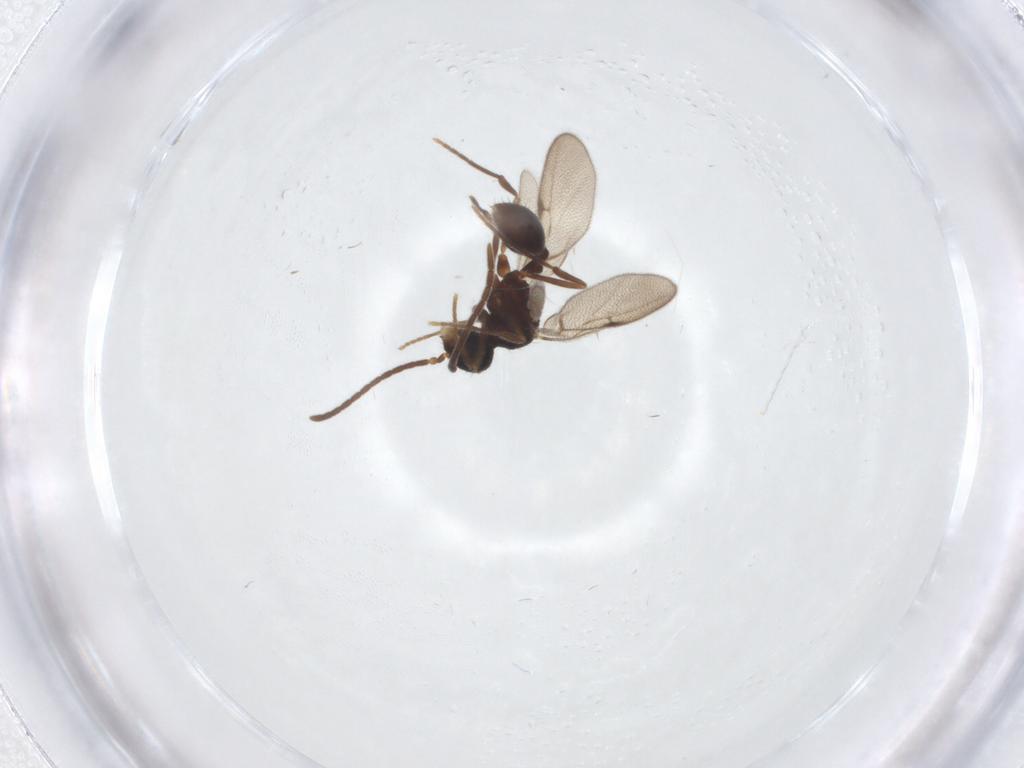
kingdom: Animalia
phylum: Arthropoda
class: Insecta
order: Hymenoptera
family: Formicidae
